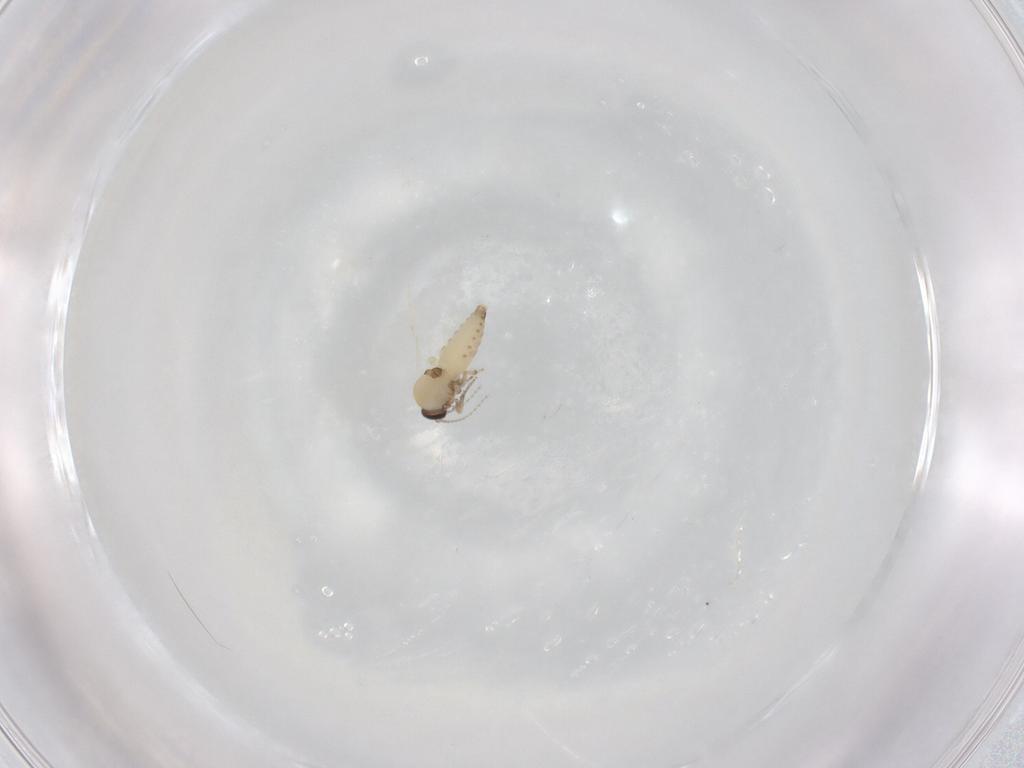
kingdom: Animalia
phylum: Arthropoda
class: Insecta
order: Diptera
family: Ceratopogonidae
